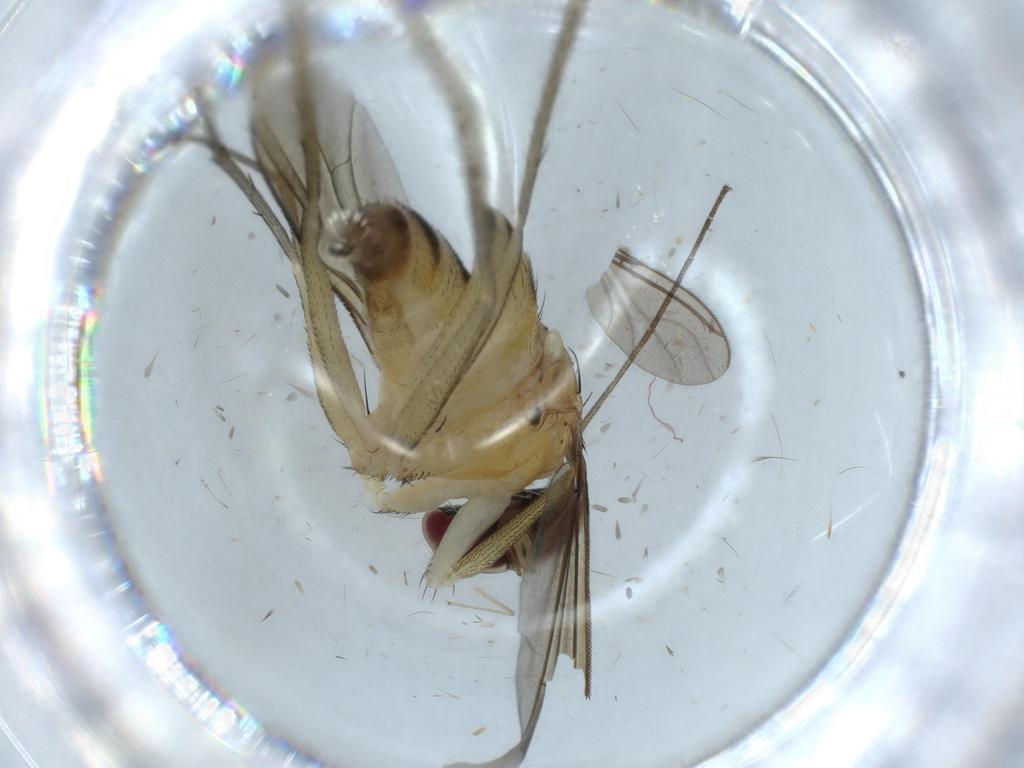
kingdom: Animalia
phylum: Arthropoda
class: Insecta
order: Diptera
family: Dolichopodidae
